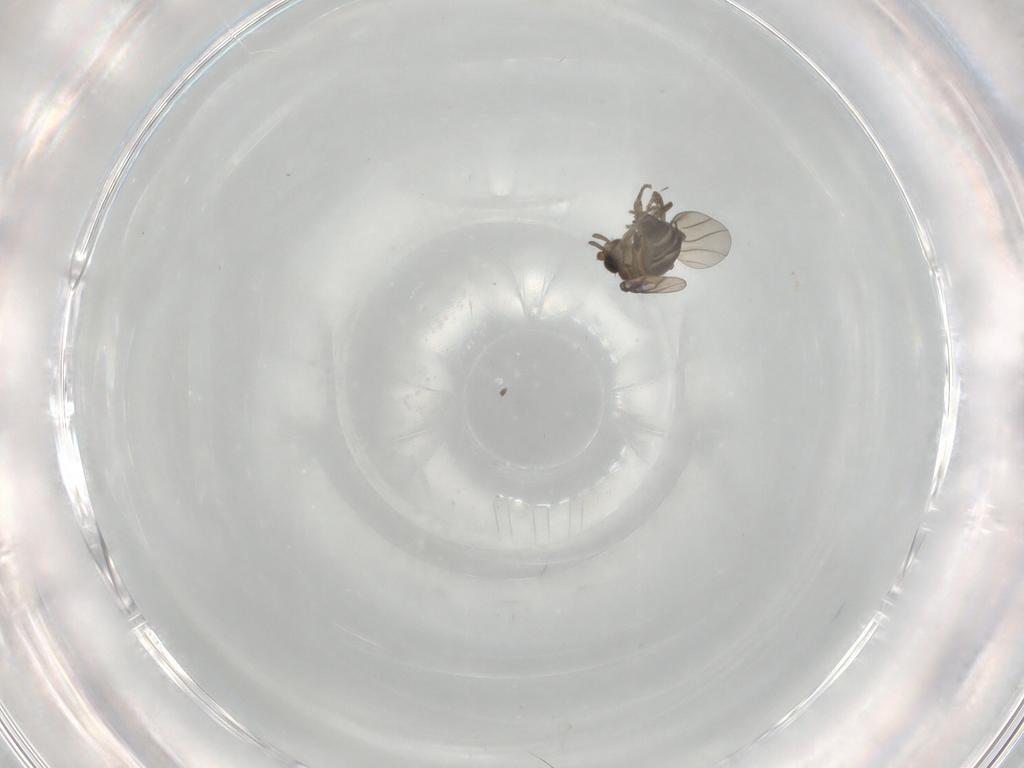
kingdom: Animalia
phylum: Arthropoda
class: Insecta
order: Diptera
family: Cecidomyiidae
